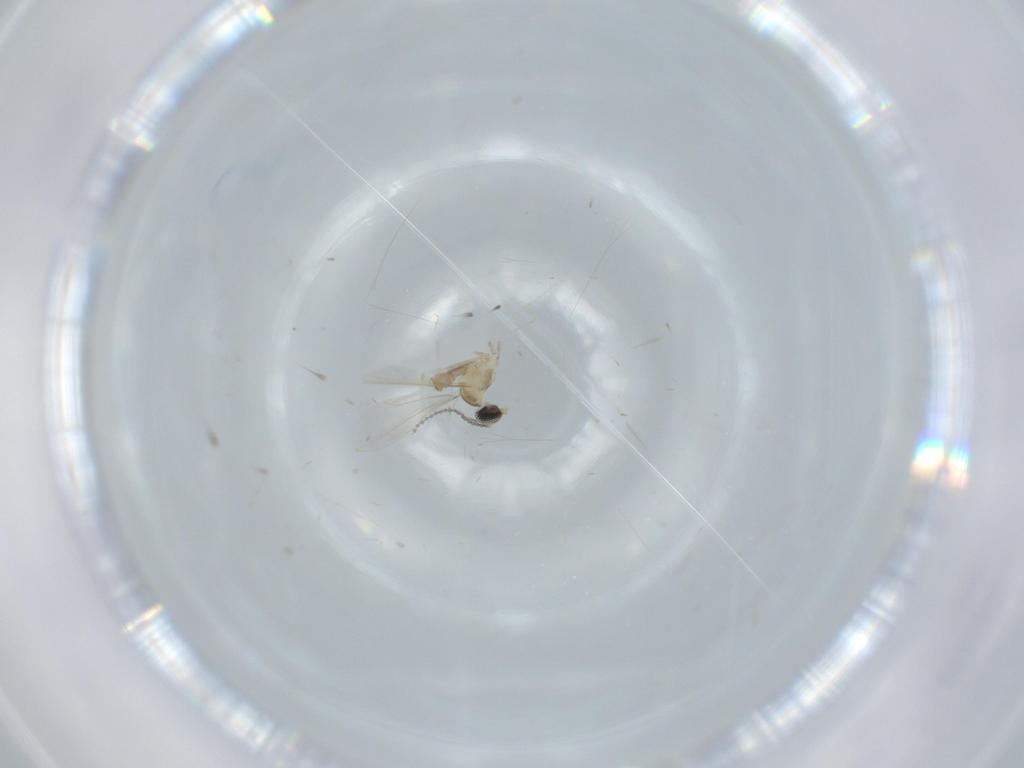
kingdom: Animalia
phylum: Arthropoda
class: Insecta
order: Diptera
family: Cecidomyiidae
